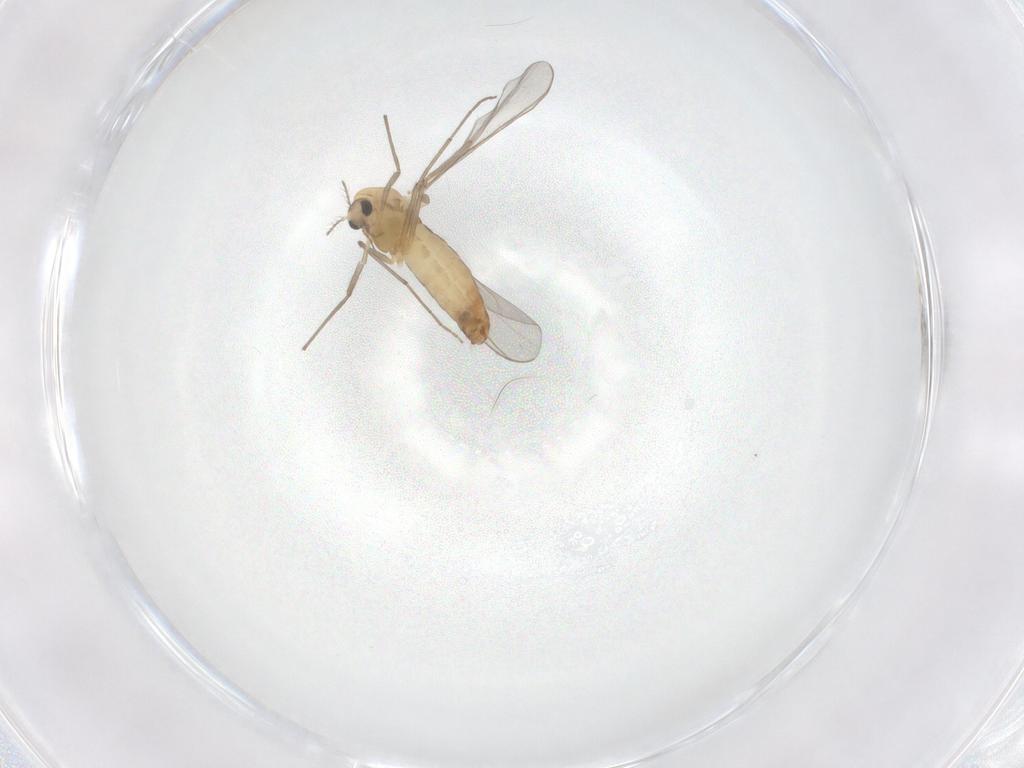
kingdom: Animalia
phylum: Arthropoda
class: Insecta
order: Diptera
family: Chironomidae
